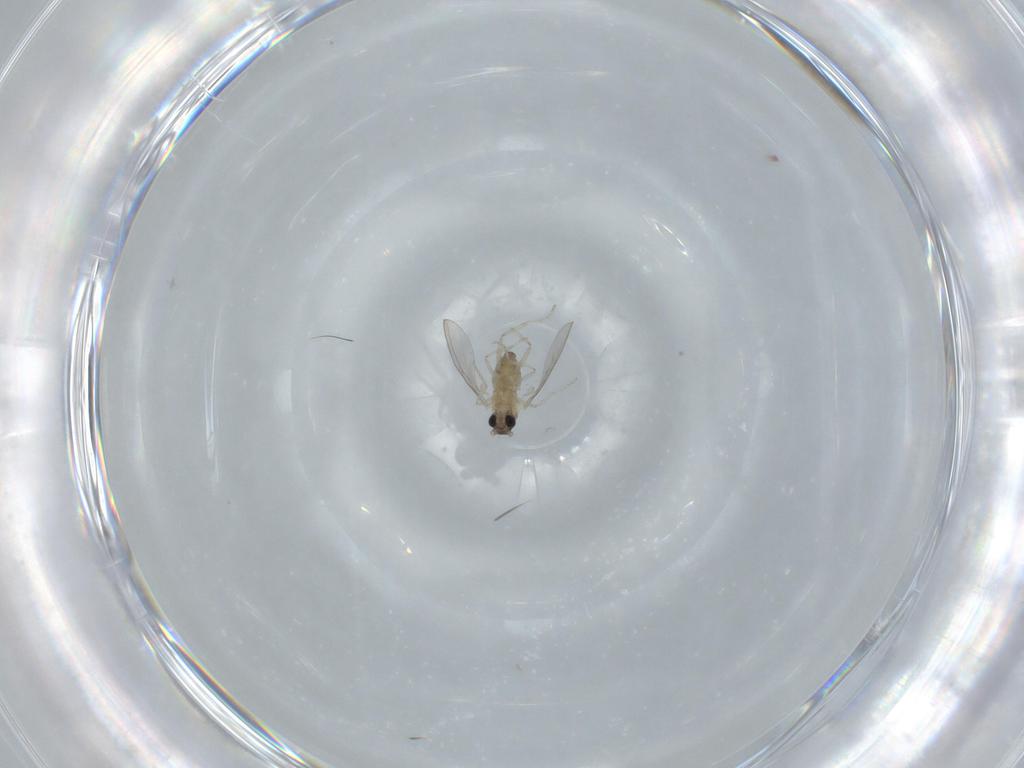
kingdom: Animalia
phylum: Arthropoda
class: Insecta
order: Diptera
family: Cecidomyiidae
